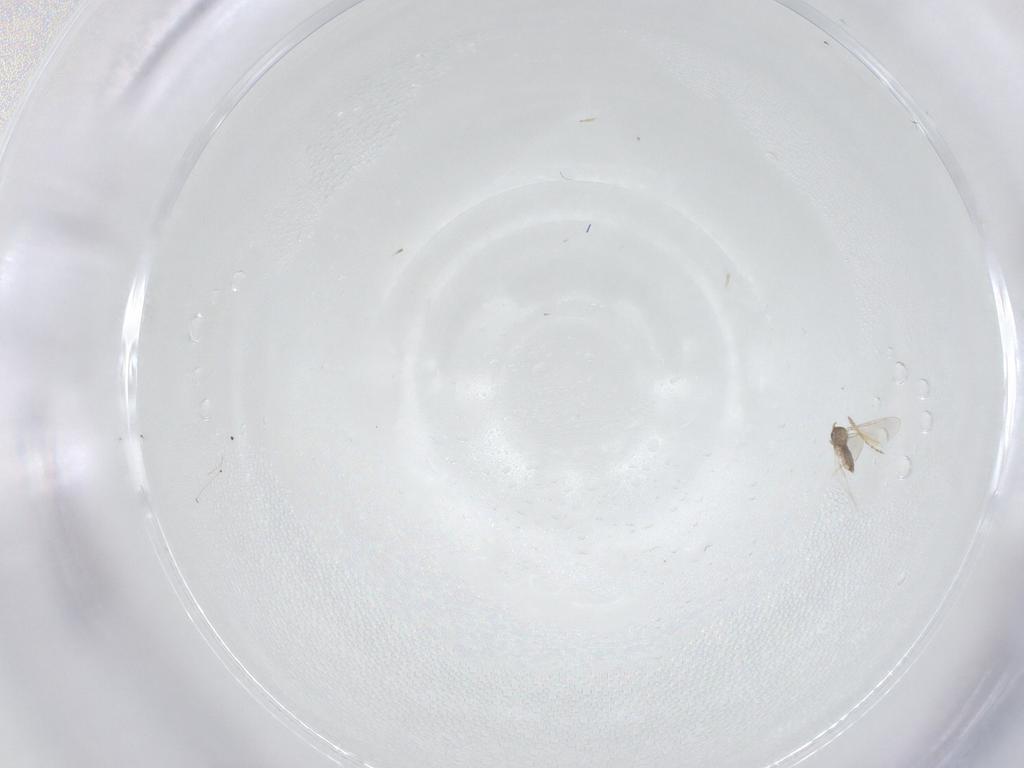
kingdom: Animalia
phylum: Arthropoda
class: Insecta
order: Diptera
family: Cecidomyiidae
